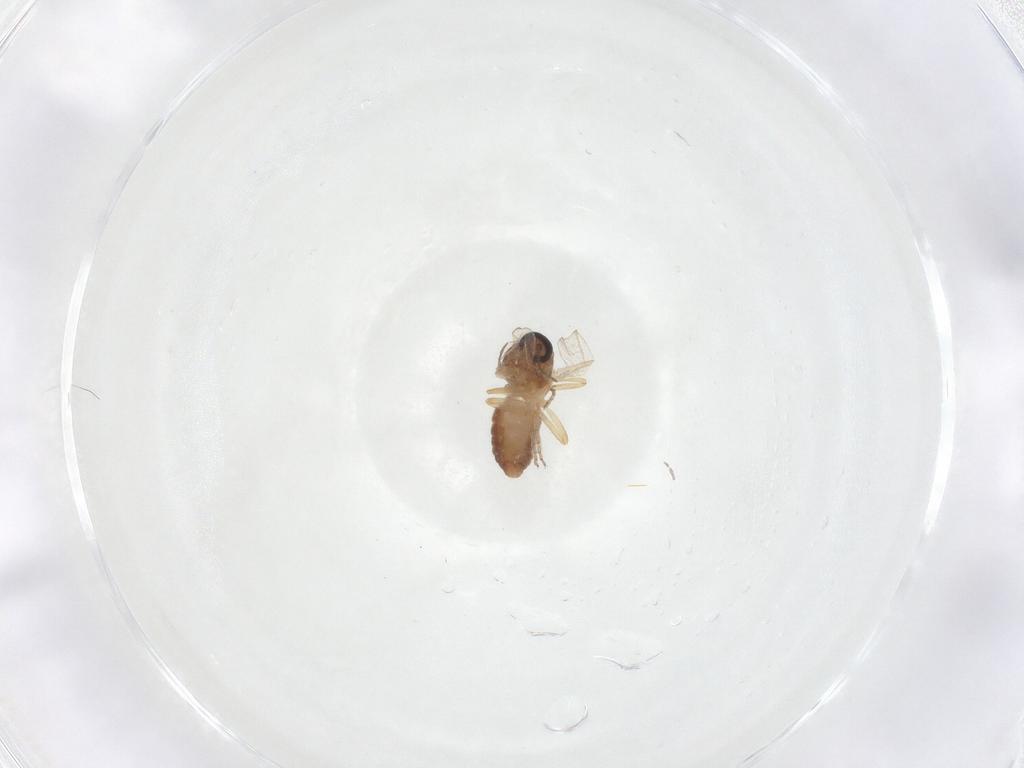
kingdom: Animalia
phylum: Arthropoda
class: Insecta
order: Diptera
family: Ceratopogonidae
